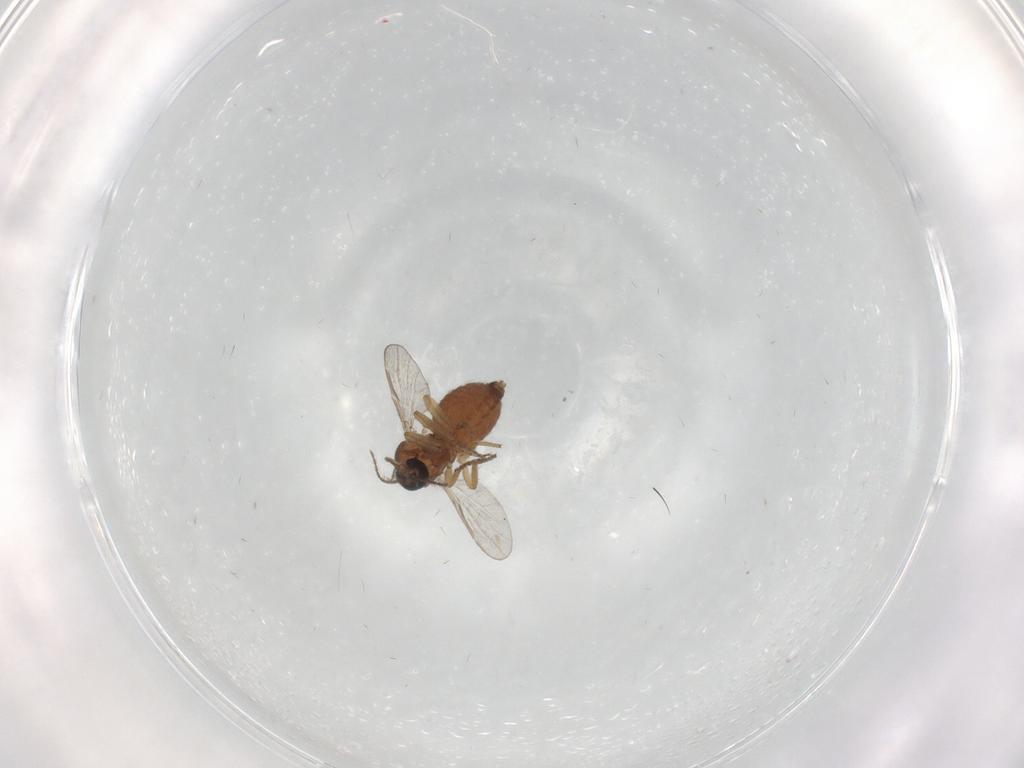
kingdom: Animalia
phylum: Arthropoda
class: Insecta
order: Diptera
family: Ceratopogonidae
